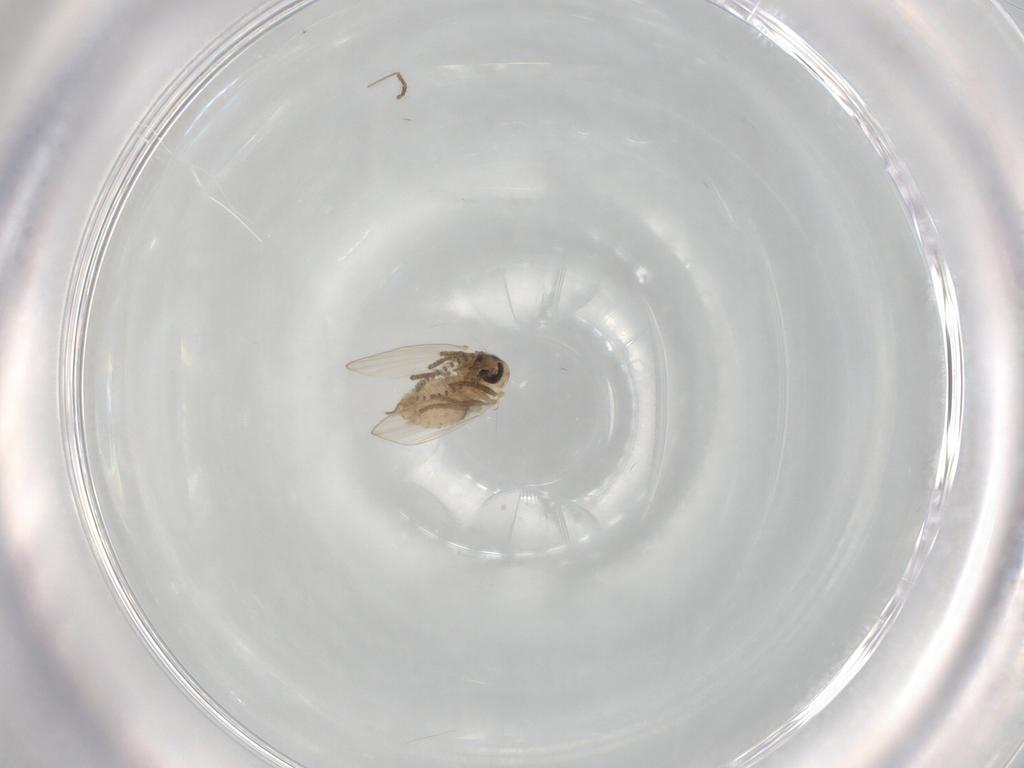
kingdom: Animalia
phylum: Arthropoda
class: Insecta
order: Diptera
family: Psychodidae
